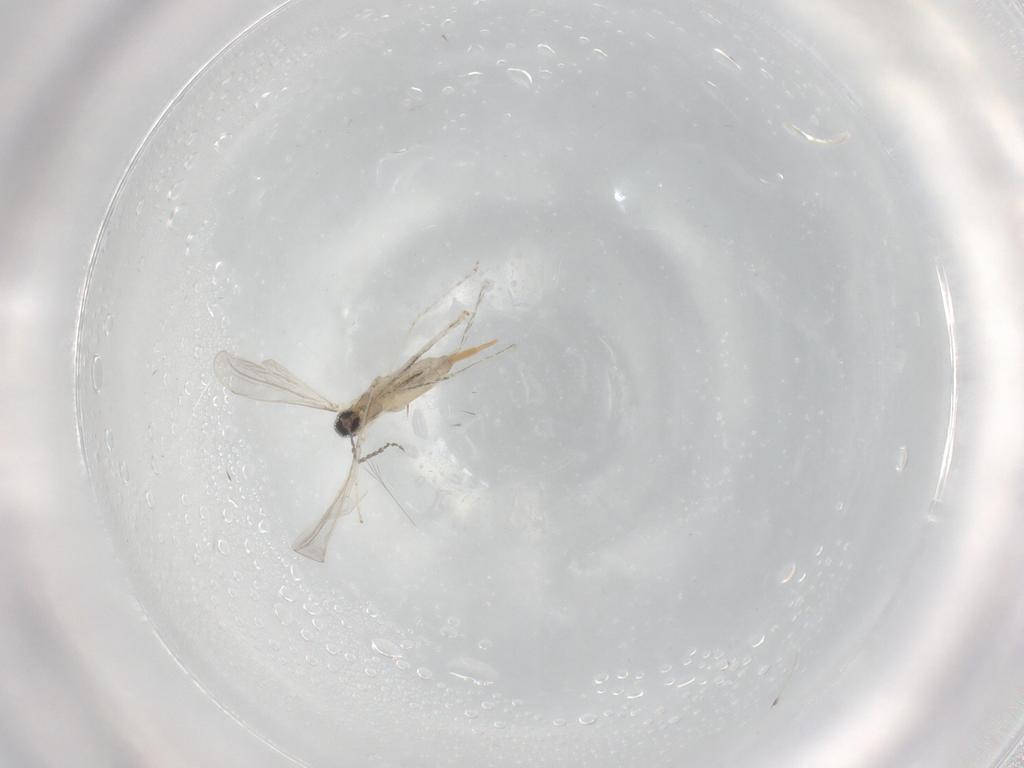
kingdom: Animalia
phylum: Arthropoda
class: Insecta
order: Diptera
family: Cecidomyiidae
